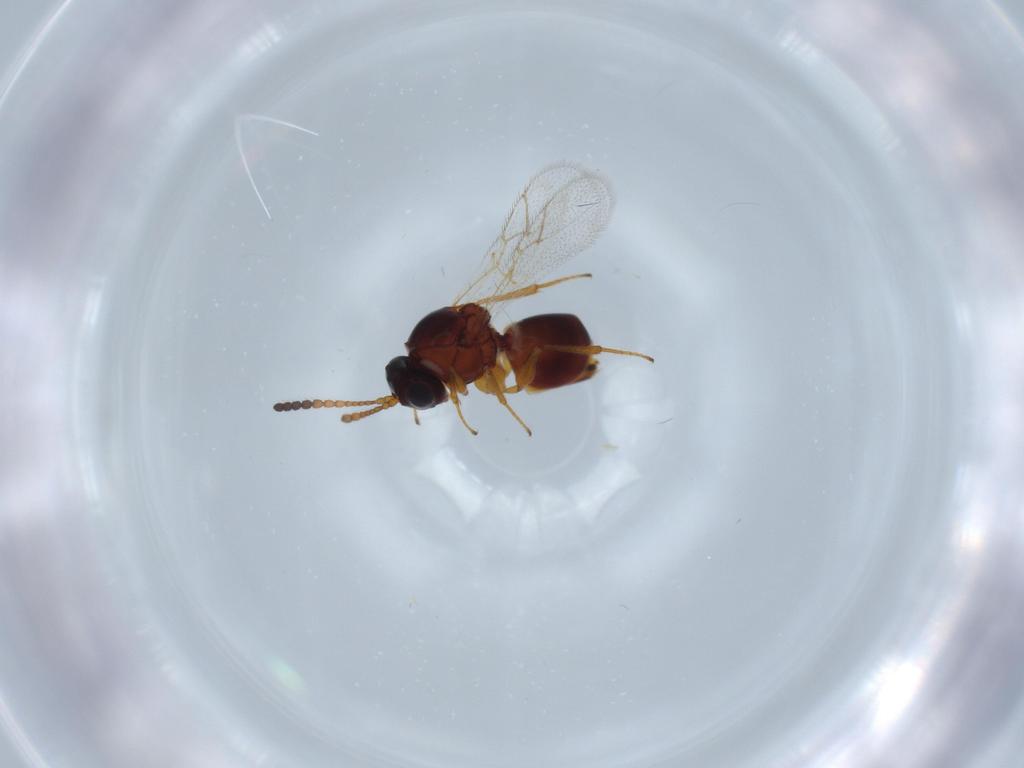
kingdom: Animalia
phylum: Arthropoda
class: Insecta
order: Hymenoptera
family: Figitidae
